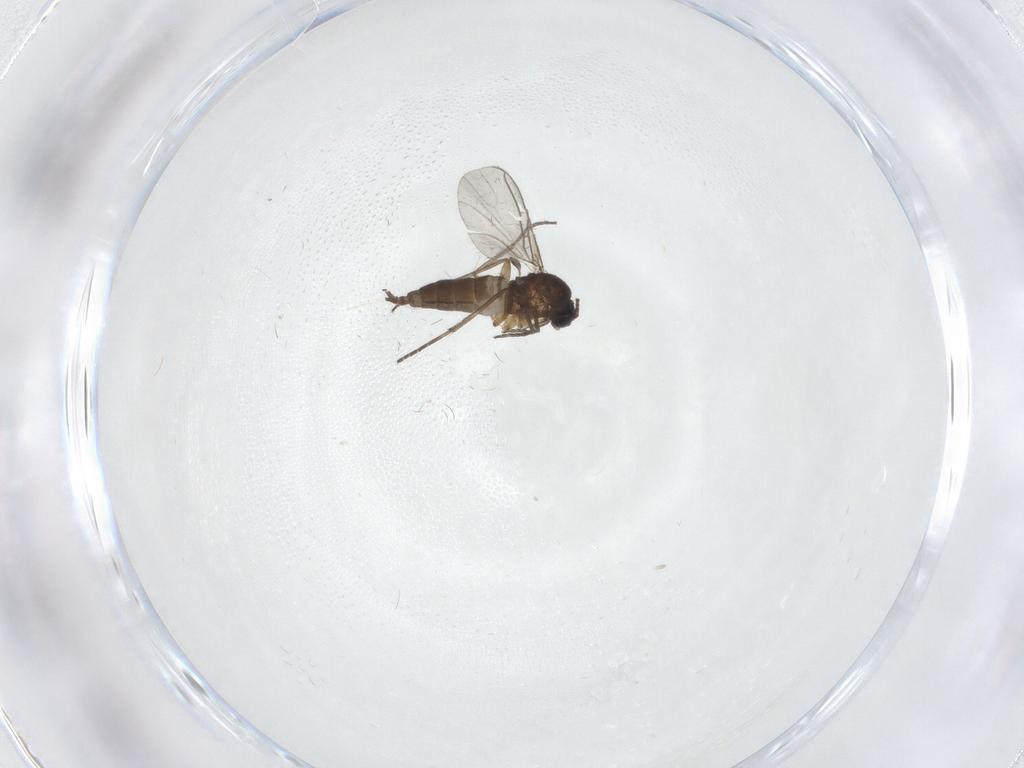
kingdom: Animalia
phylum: Arthropoda
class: Insecta
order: Diptera
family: Sciaridae
